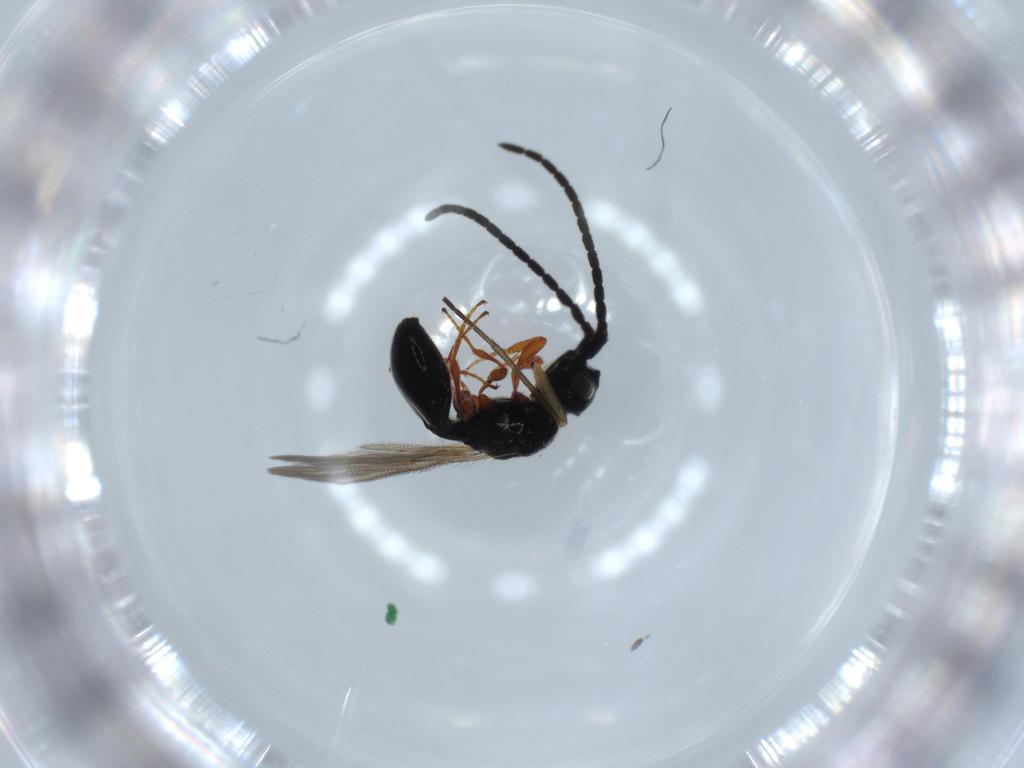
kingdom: Animalia
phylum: Arthropoda
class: Insecta
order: Hymenoptera
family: Diapriidae
